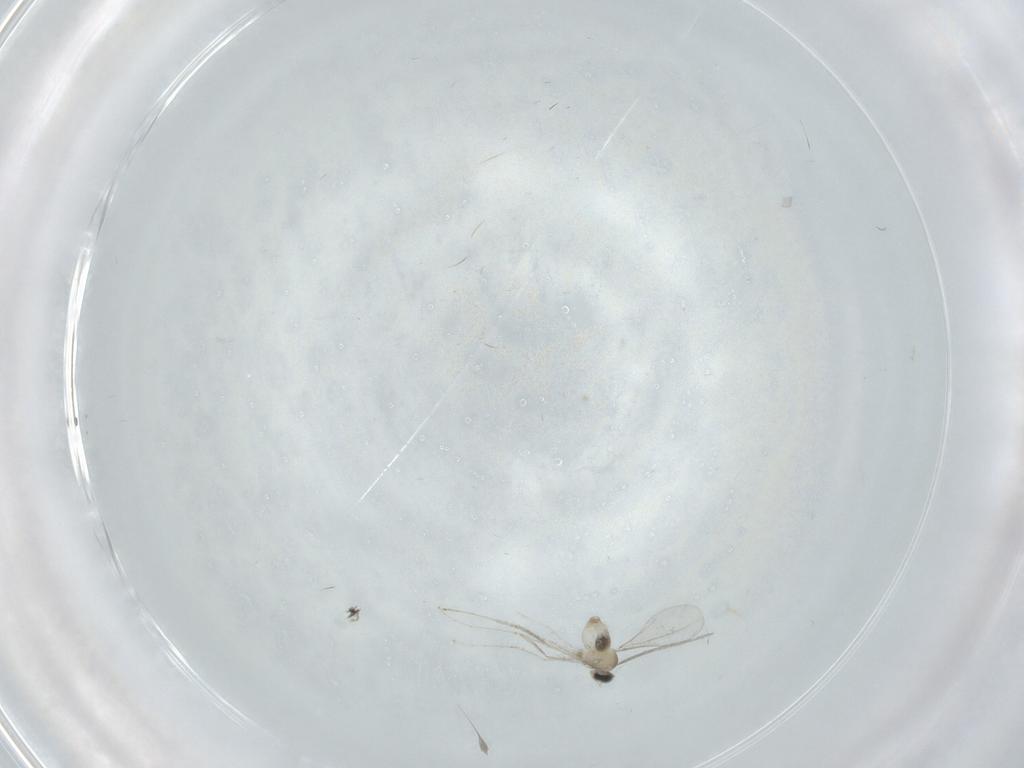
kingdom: Animalia
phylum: Arthropoda
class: Insecta
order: Diptera
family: Cecidomyiidae
